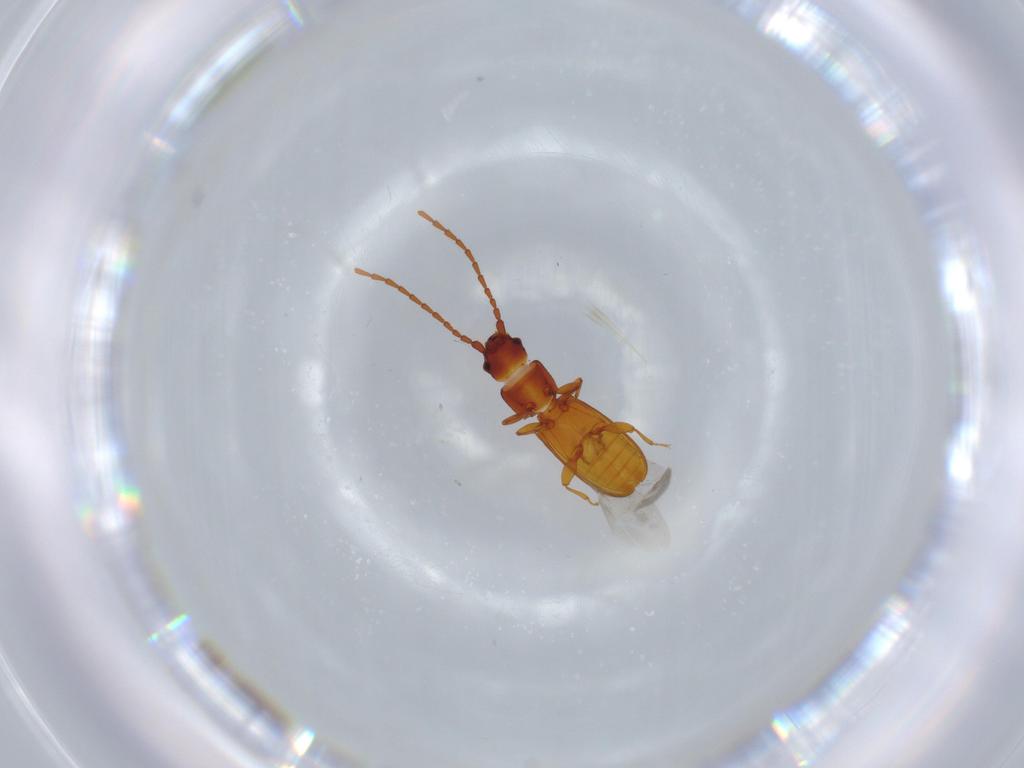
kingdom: Animalia
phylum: Arthropoda
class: Insecta
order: Coleoptera
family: Laemophloeidae
